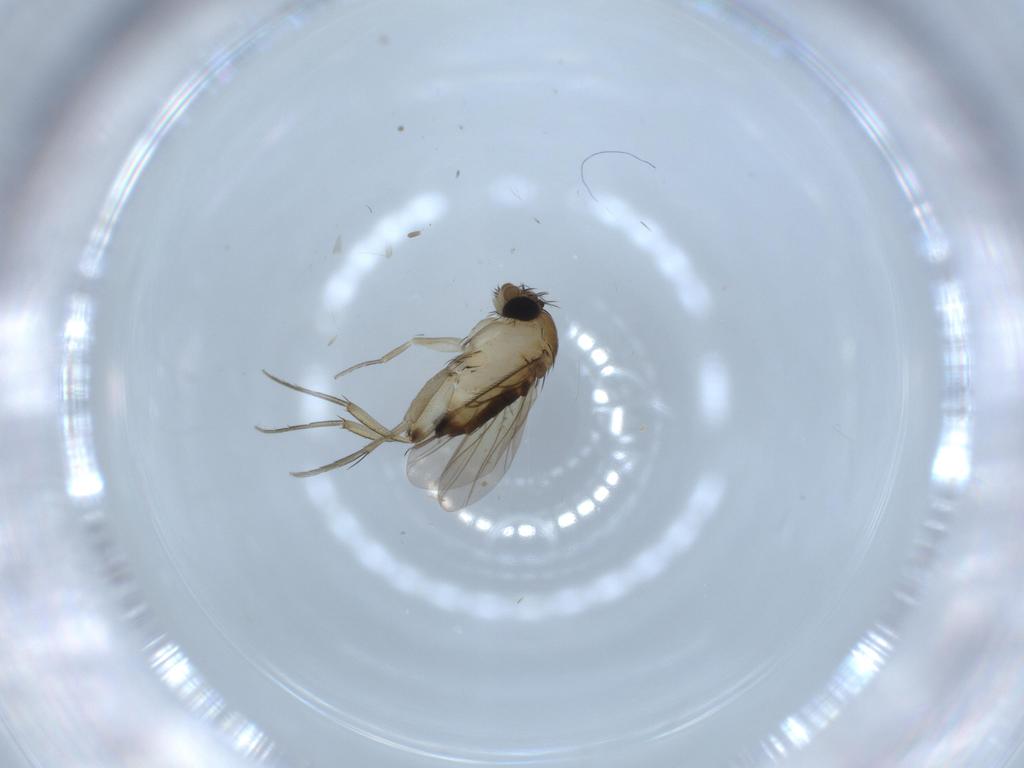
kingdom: Animalia
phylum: Arthropoda
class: Insecta
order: Diptera
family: Phoridae
